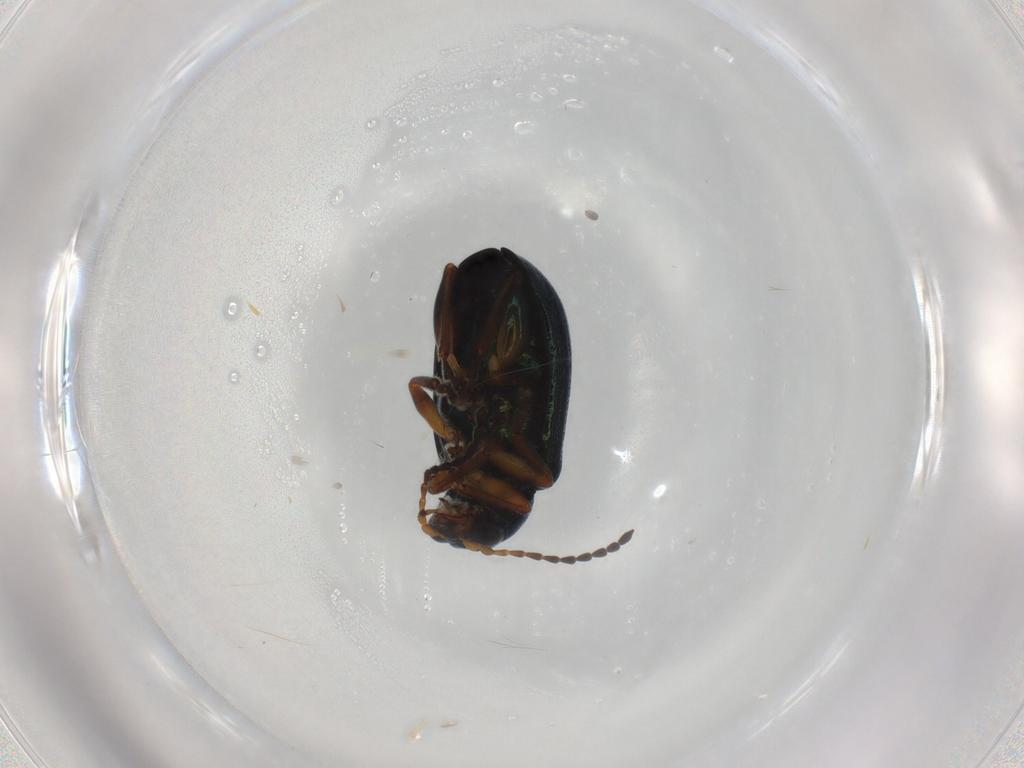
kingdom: Animalia
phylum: Arthropoda
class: Insecta
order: Coleoptera
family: Chrysomelidae
